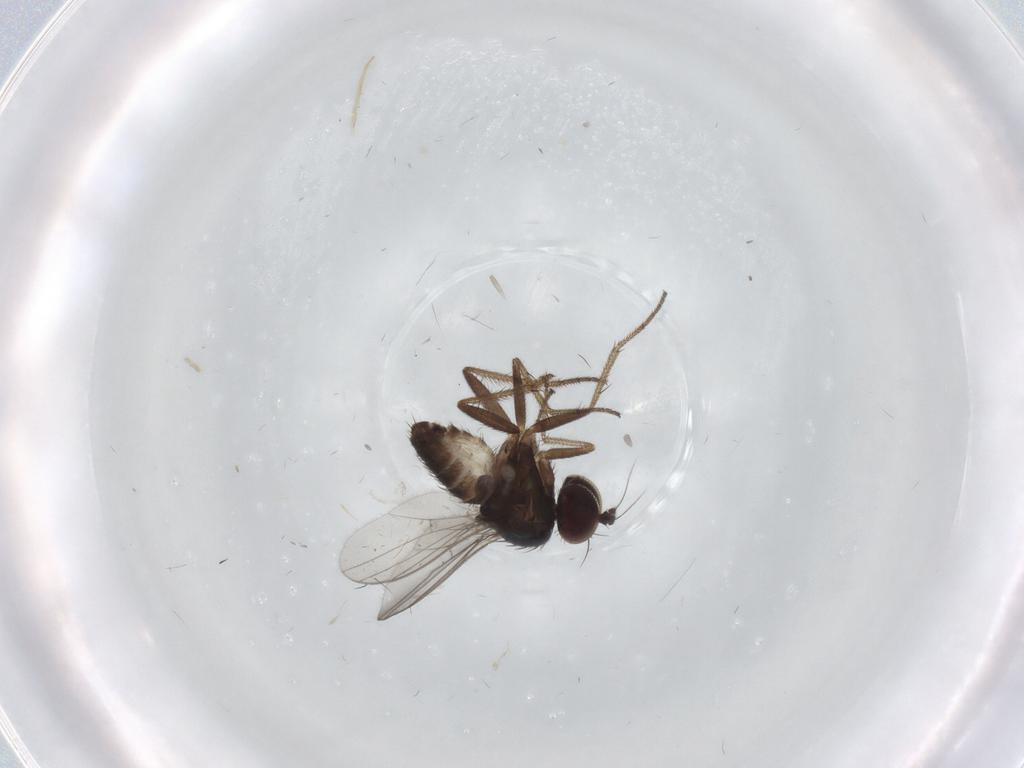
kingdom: Animalia
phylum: Arthropoda
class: Insecta
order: Diptera
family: Dolichopodidae
